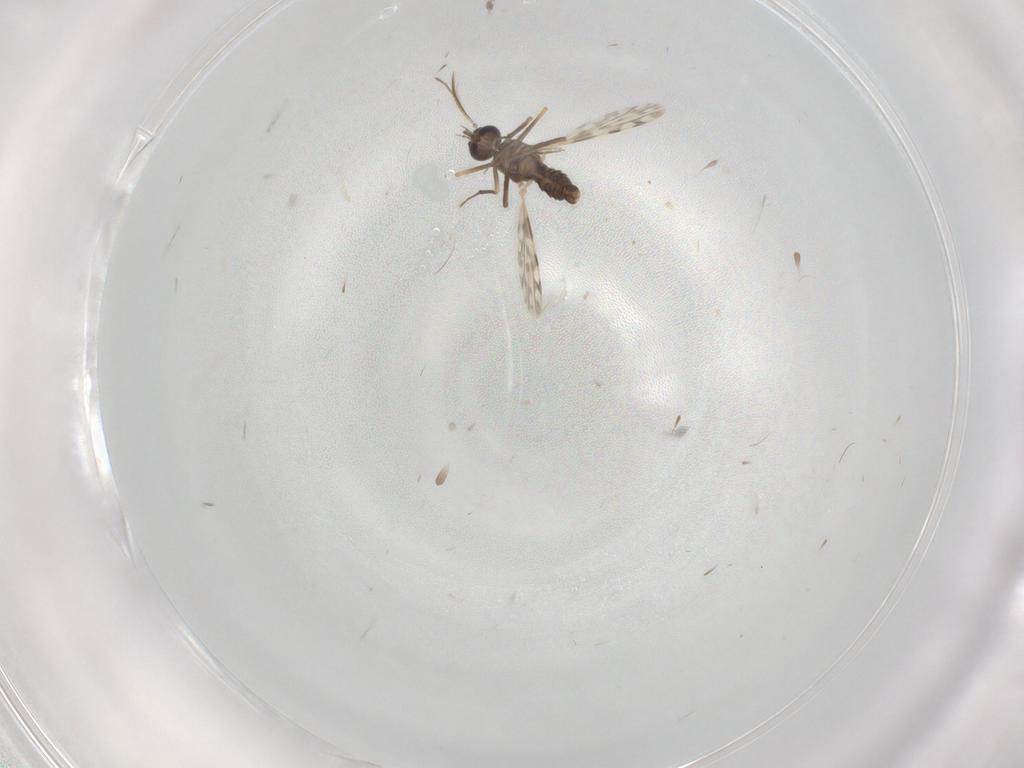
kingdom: Animalia
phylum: Arthropoda
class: Insecta
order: Diptera
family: Ceratopogonidae
